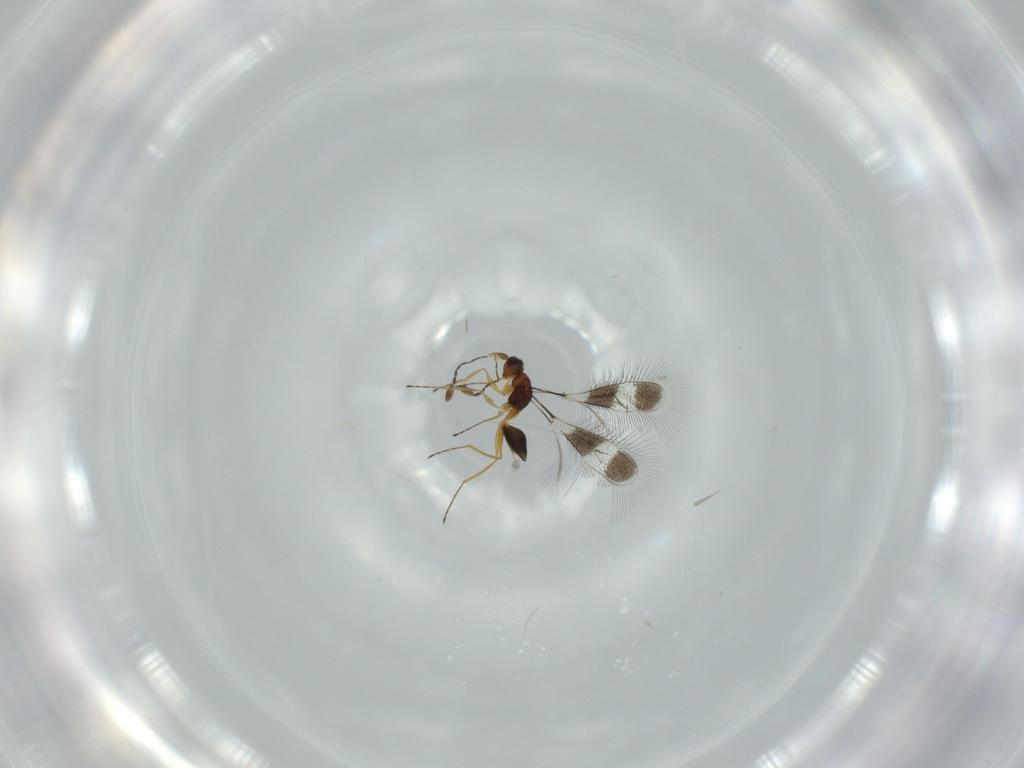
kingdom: Animalia
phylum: Arthropoda
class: Insecta
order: Hymenoptera
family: Mymaridae
